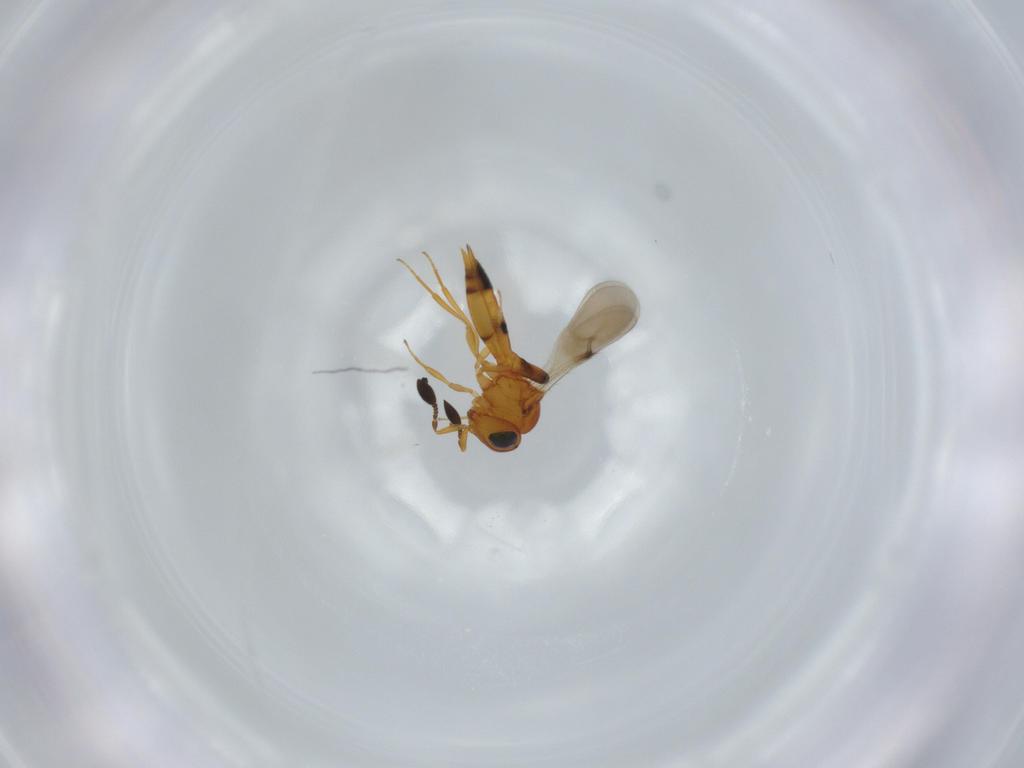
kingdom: Animalia
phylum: Arthropoda
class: Insecta
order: Hymenoptera
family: Scelionidae
